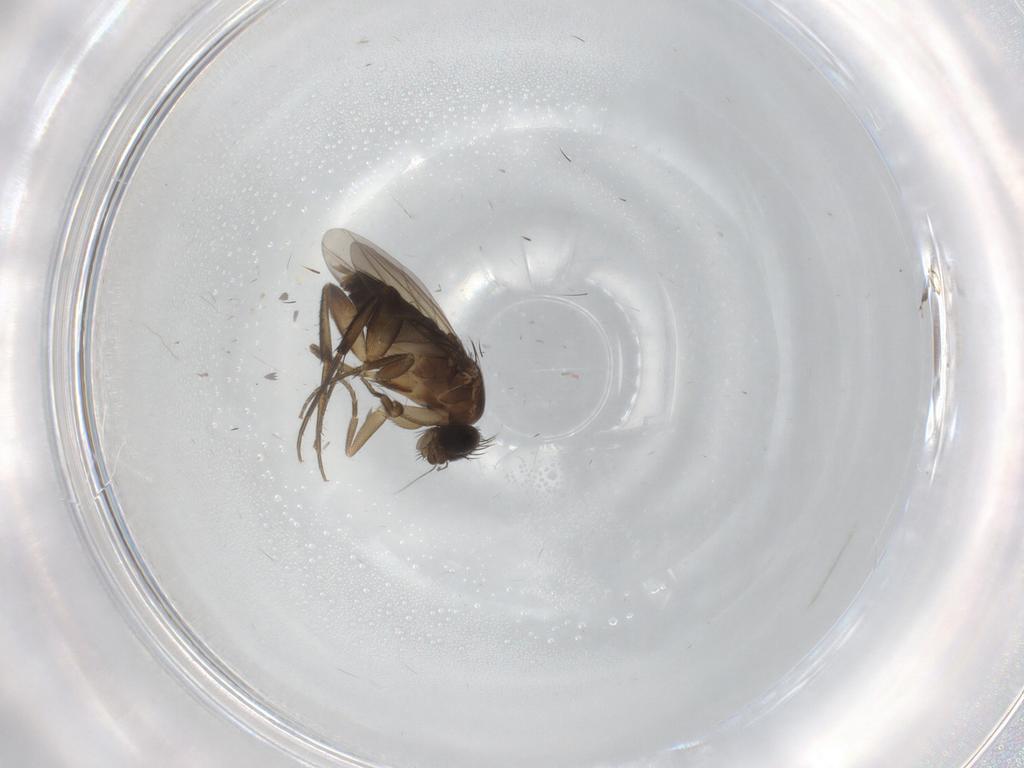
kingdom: Animalia
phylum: Arthropoda
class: Insecta
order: Diptera
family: Phoridae
